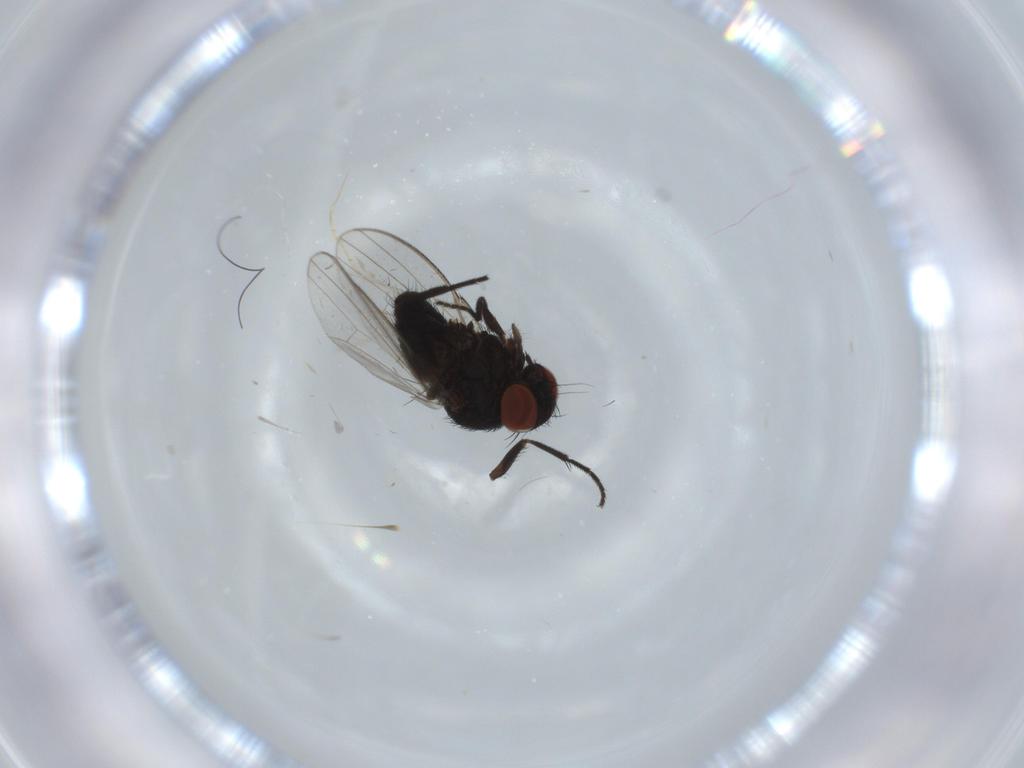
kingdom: Animalia
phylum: Arthropoda
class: Insecta
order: Diptera
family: Milichiidae
